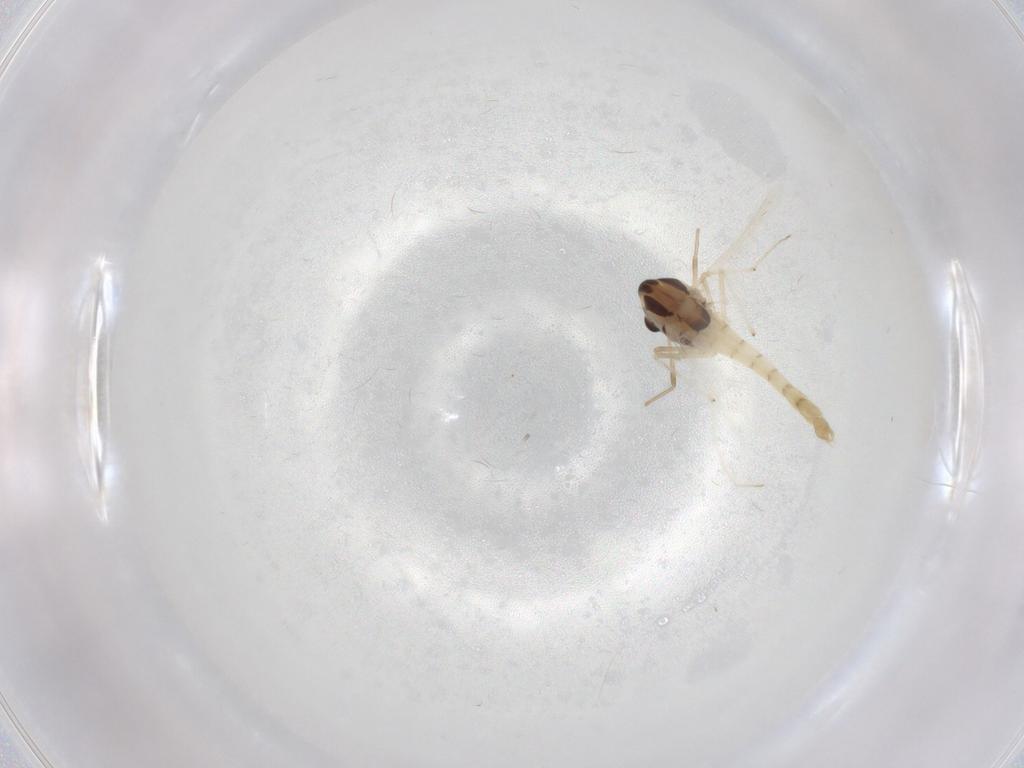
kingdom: Animalia
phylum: Arthropoda
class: Insecta
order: Diptera
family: Chironomidae
